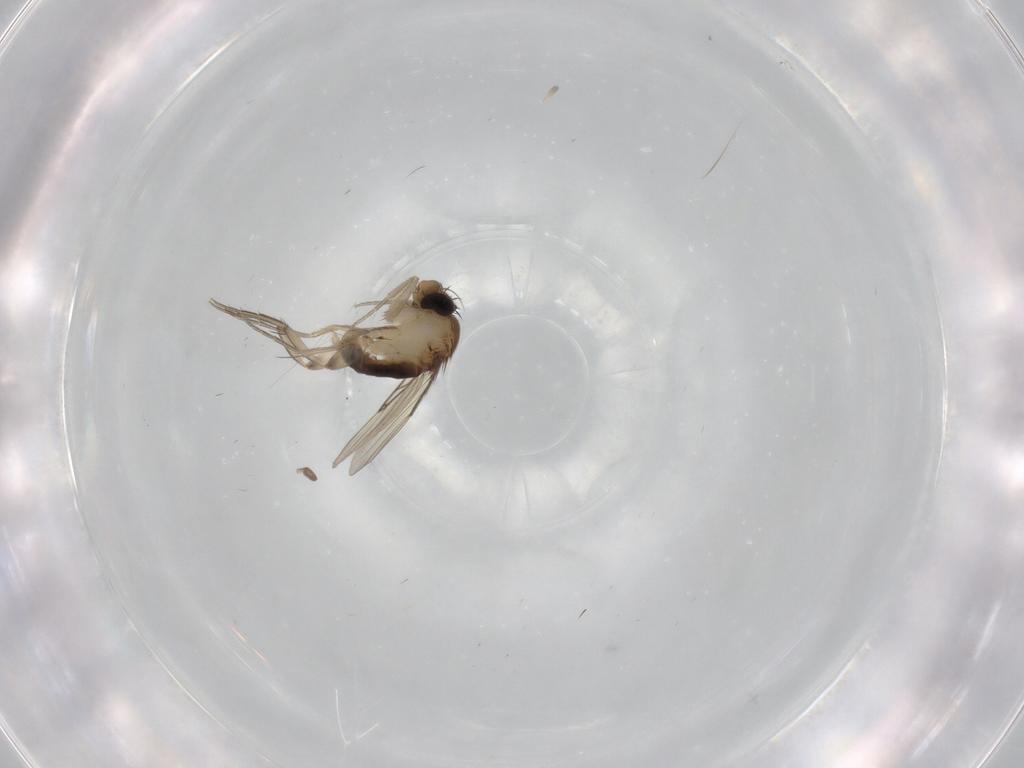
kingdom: Animalia
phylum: Arthropoda
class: Insecta
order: Diptera
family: Phoridae
